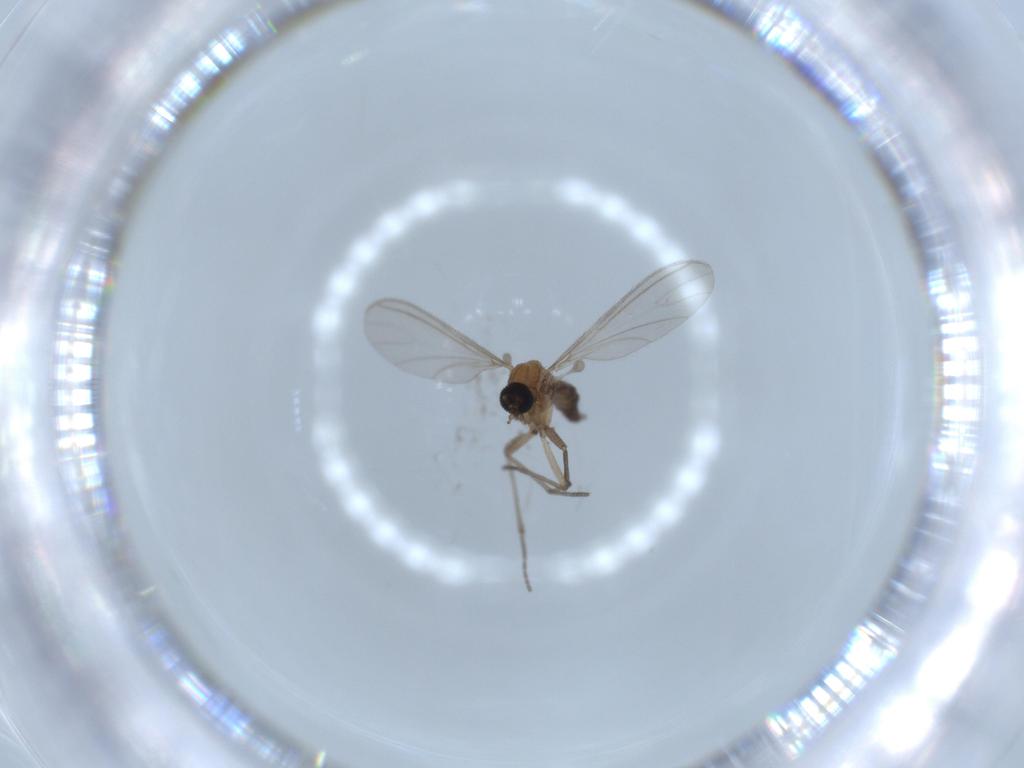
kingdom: Animalia
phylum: Arthropoda
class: Insecta
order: Diptera
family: Sciaridae
